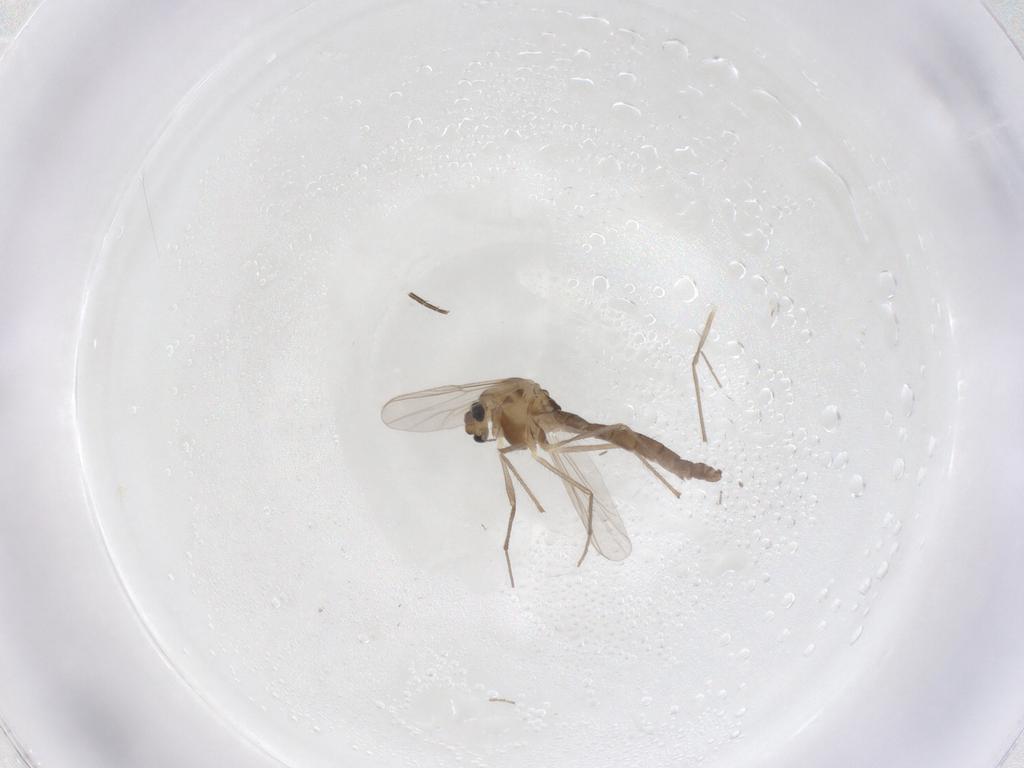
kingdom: Animalia
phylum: Arthropoda
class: Insecta
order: Diptera
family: Chironomidae
